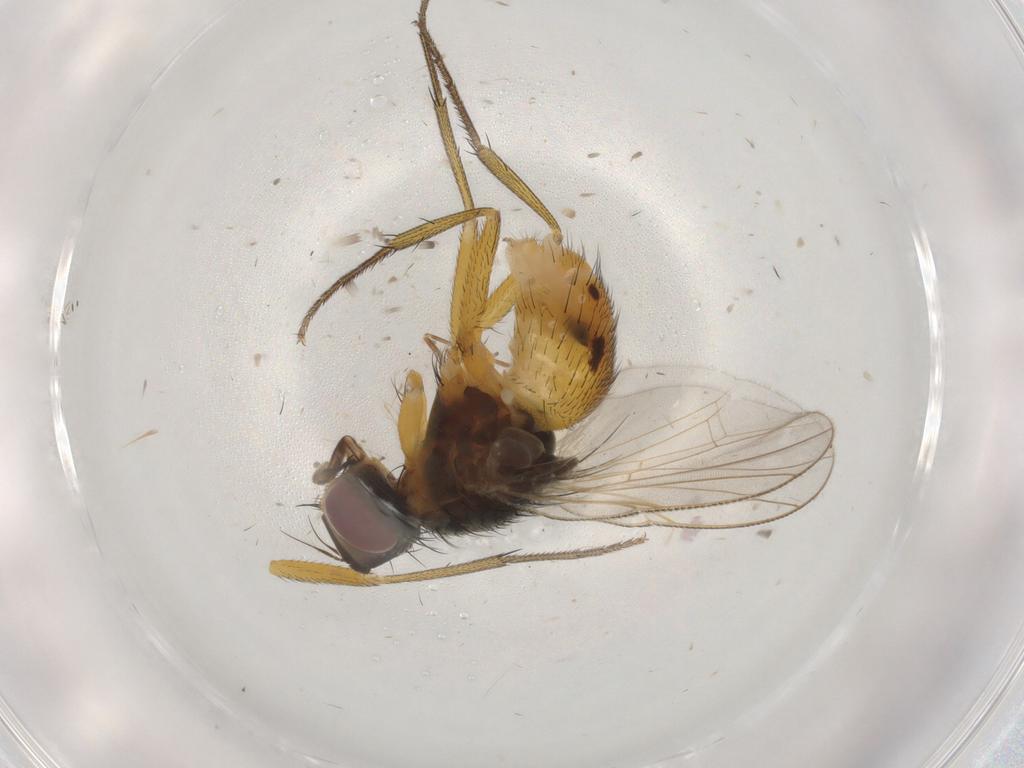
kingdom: Animalia
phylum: Arthropoda
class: Insecta
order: Diptera
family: Muscidae
